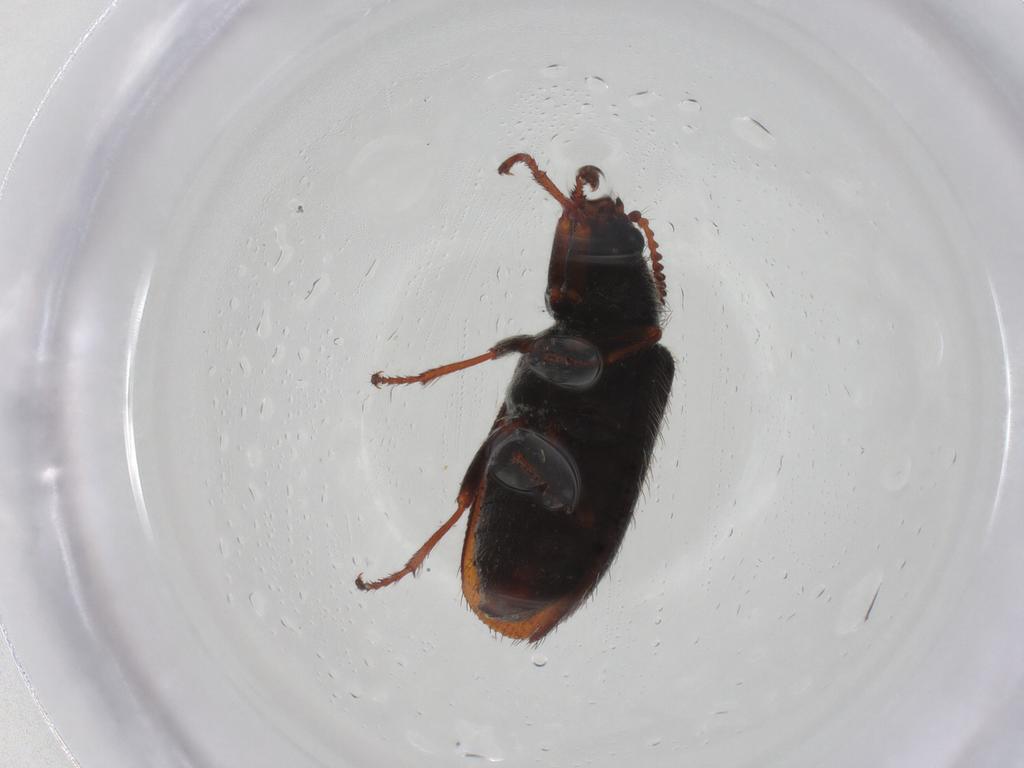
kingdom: Animalia
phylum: Arthropoda
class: Insecta
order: Coleoptera
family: Melyridae
